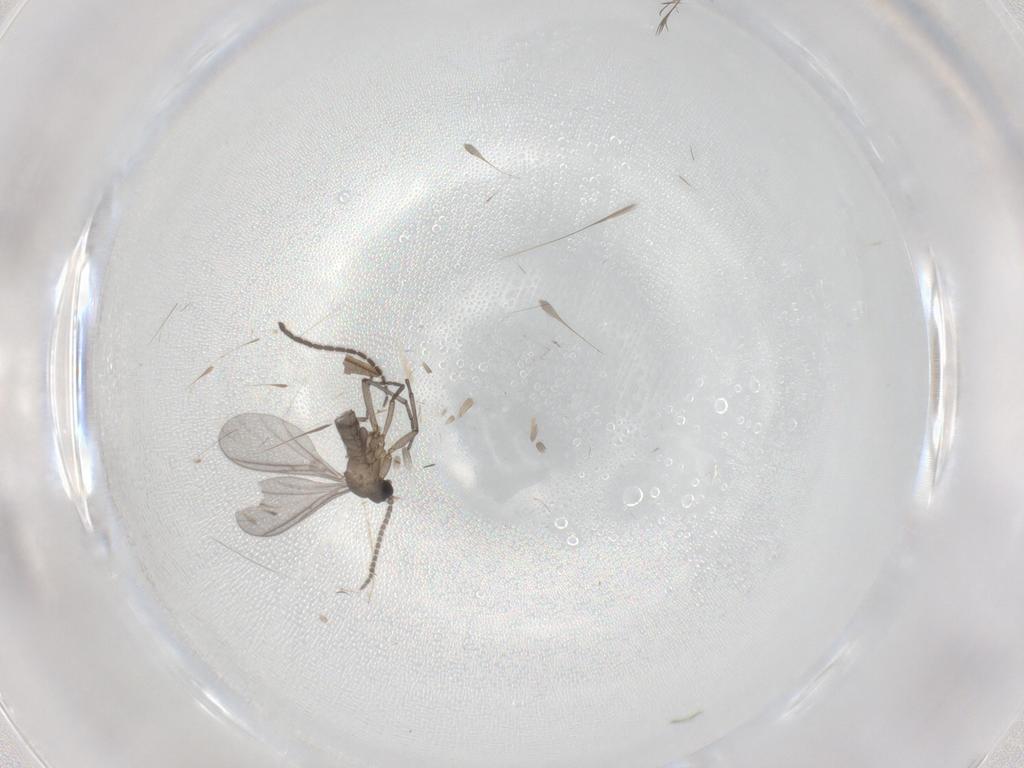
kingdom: Animalia
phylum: Arthropoda
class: Insecta
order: Diptera
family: Sciaridae
